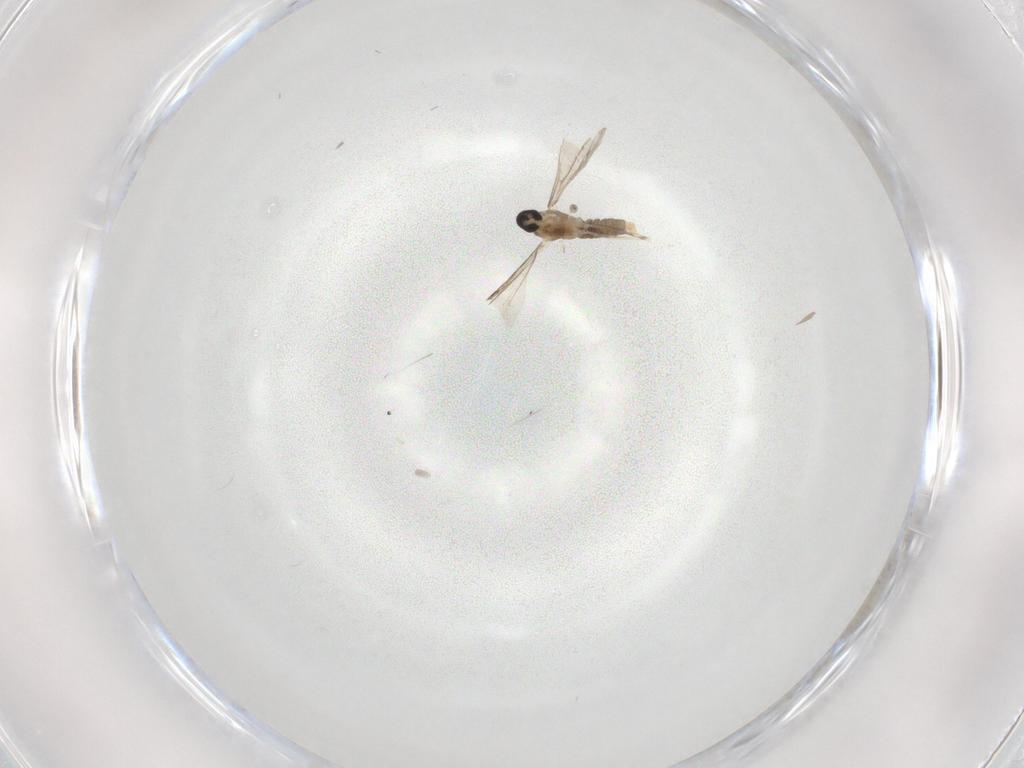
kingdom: Animalia
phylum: Arthropoda
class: Insecta
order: Diptera
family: Cecidomyiidae
